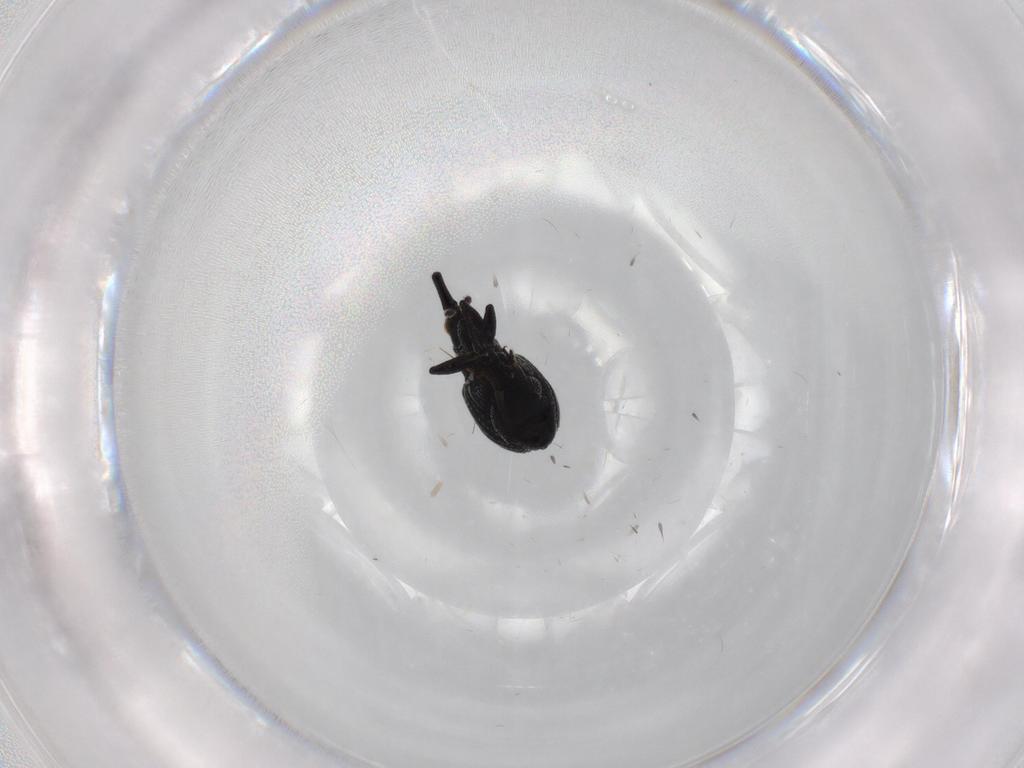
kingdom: Animalia
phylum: Arthropoda
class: Insecta
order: Coleoptera
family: Brentidae
